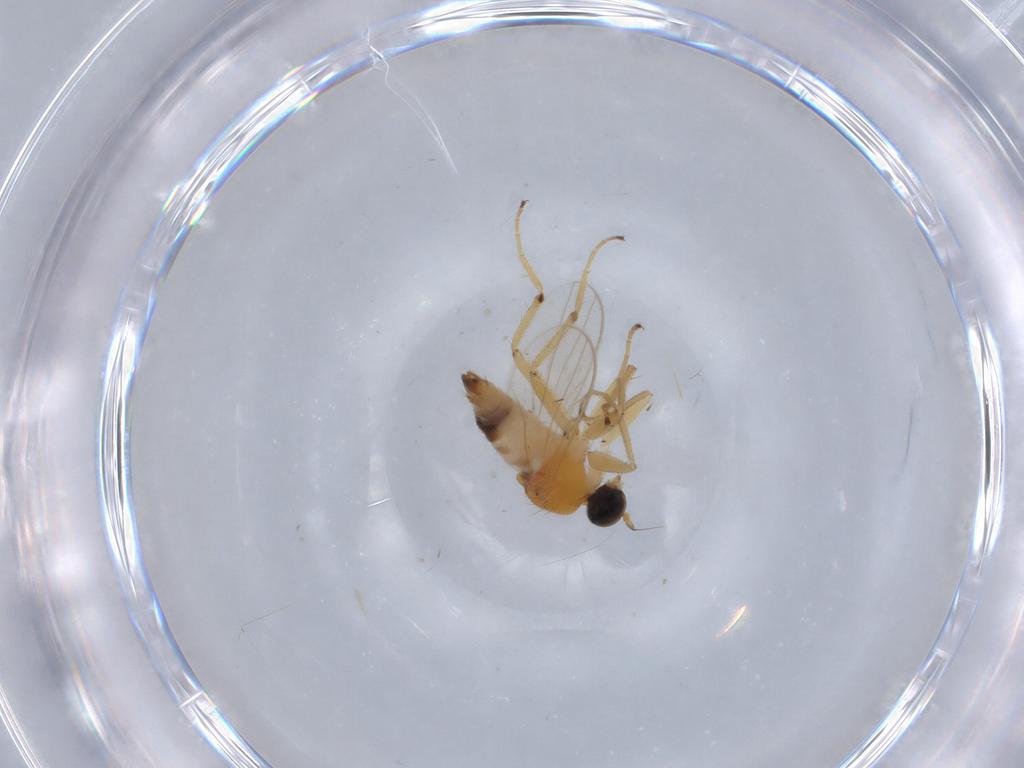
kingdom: Animalia
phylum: Arthropoda
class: Insecta
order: Diptera
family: Hybotidae
